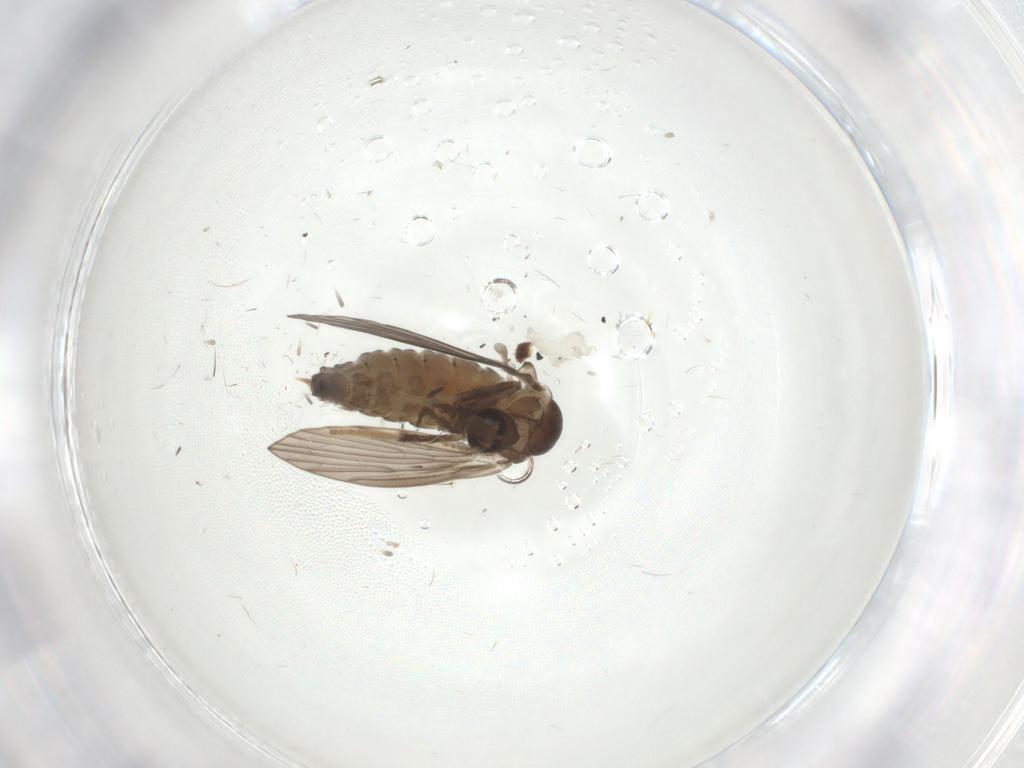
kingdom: Animalia
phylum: Arthropoda
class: Insecta
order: Diptera
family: Psychodidae
